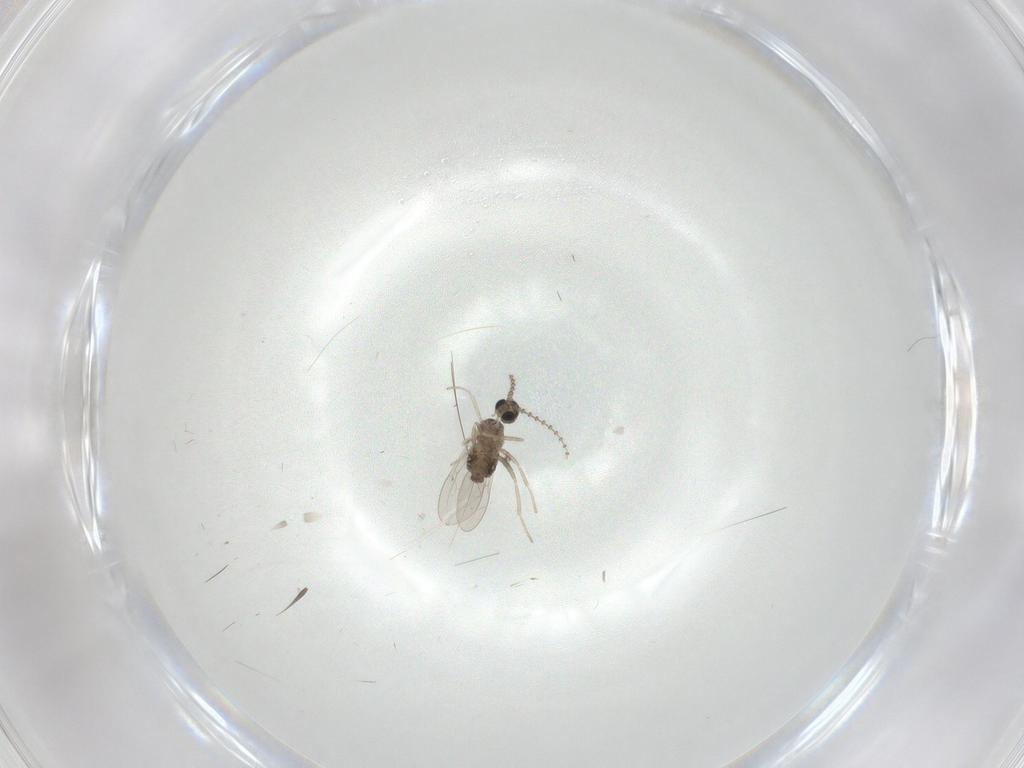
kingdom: Animalia
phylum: Arthropoda
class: Insecta
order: Diptera
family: Cecidomyiidae
